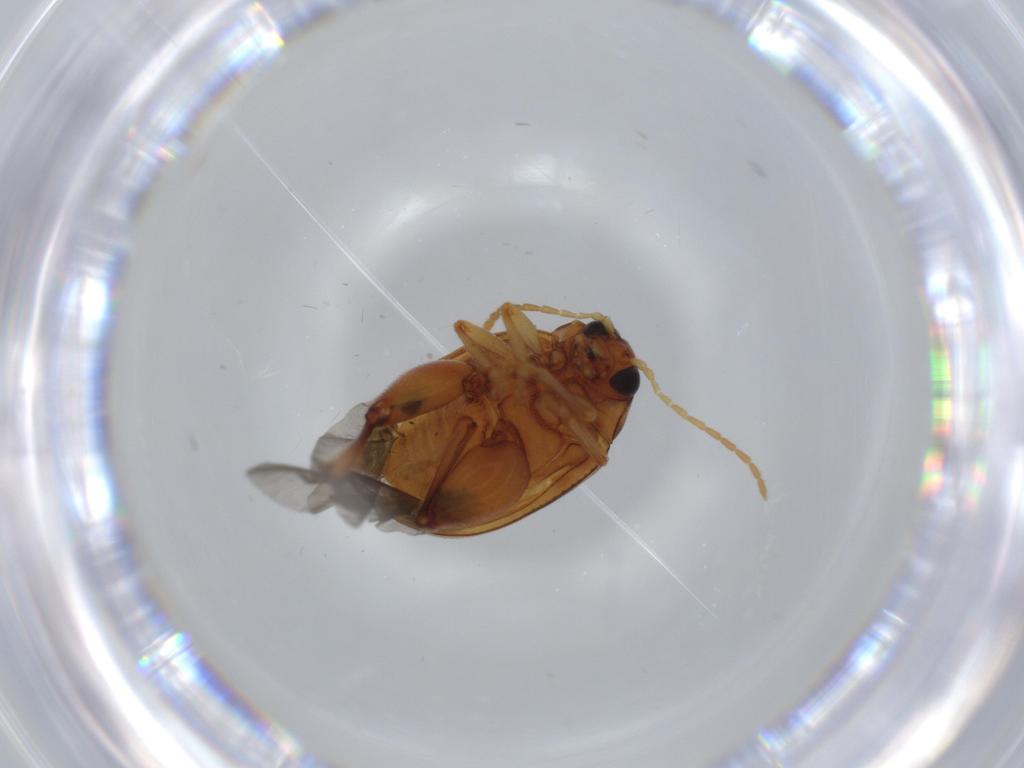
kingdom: Animalia
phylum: Arthropoda
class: Insecta
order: Coleoptera
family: Chrysomelidae
